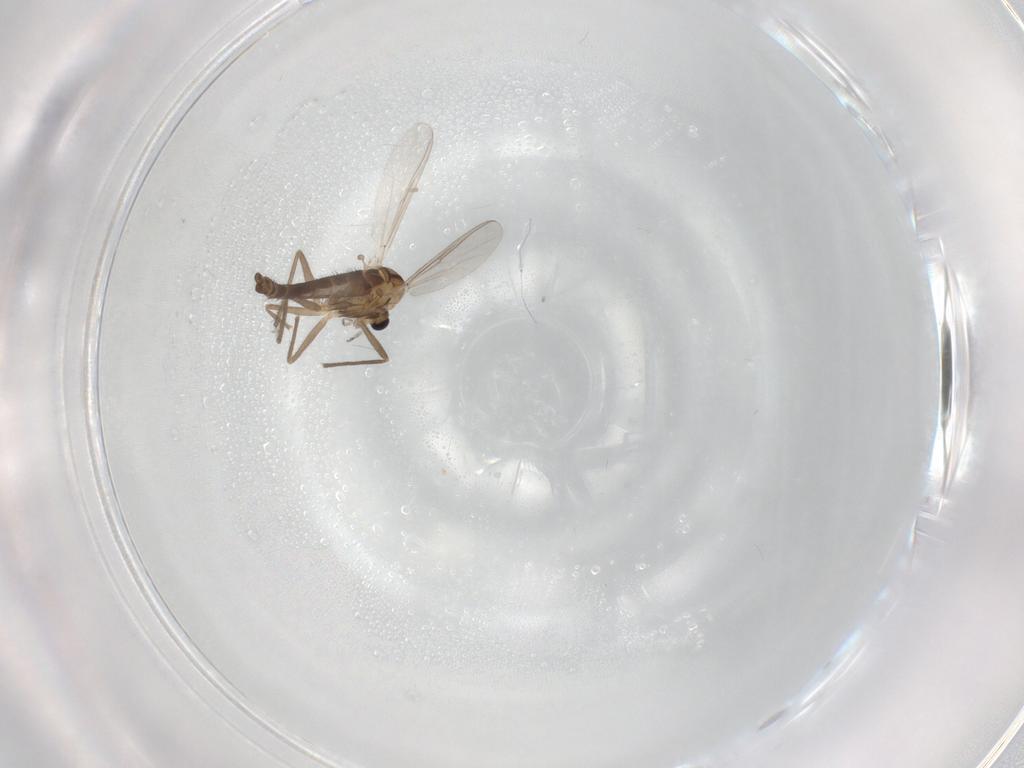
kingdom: Animalia
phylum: Arthropoda
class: Insecta
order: Diptera
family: Chironomidae
